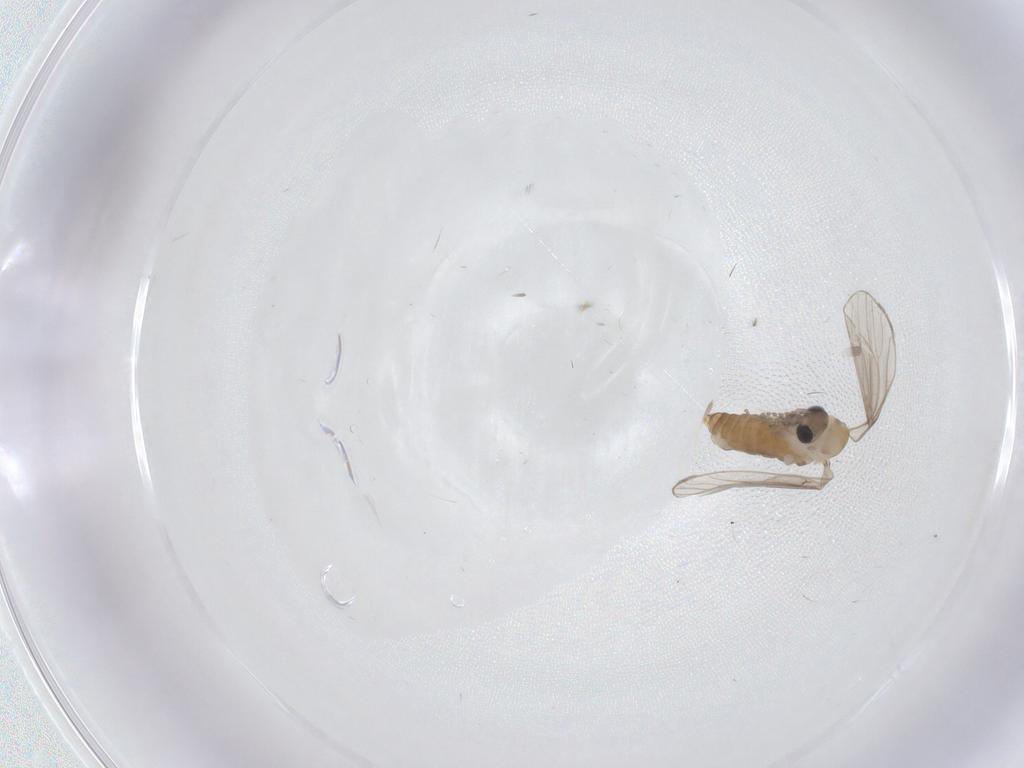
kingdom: Animalia
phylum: Arthropoda
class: Insecta
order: Diptera
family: Psychodidae
